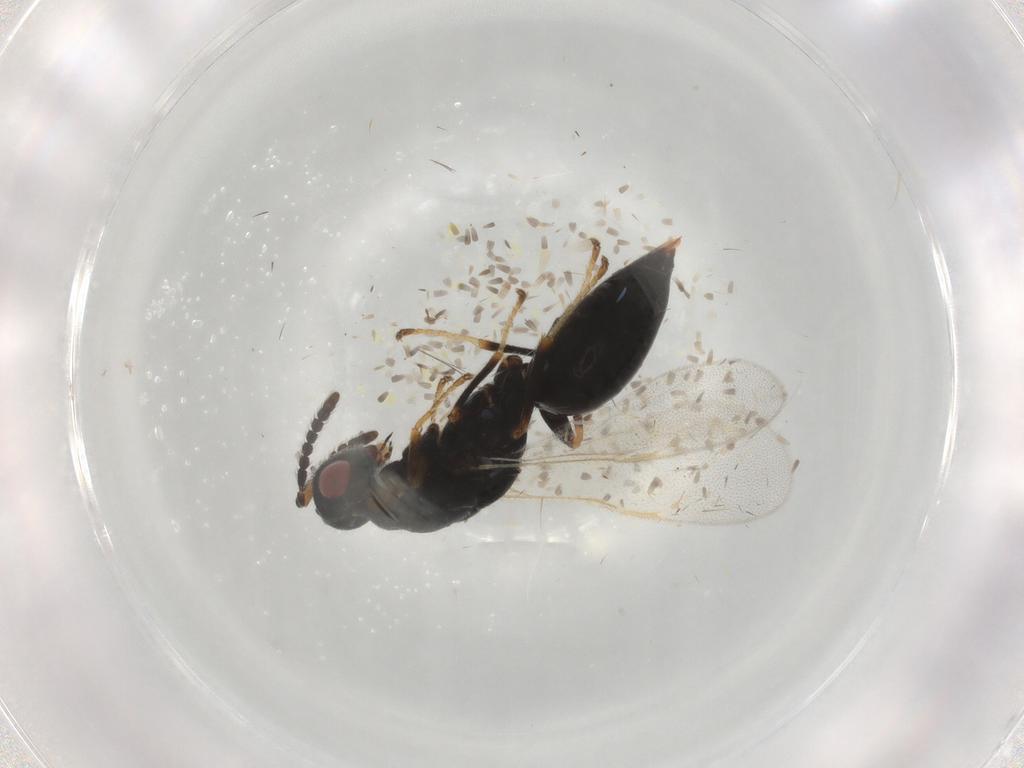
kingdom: Animalia
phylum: Arthropoda
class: Insecta
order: Hymenoptera
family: Eurytomidae
